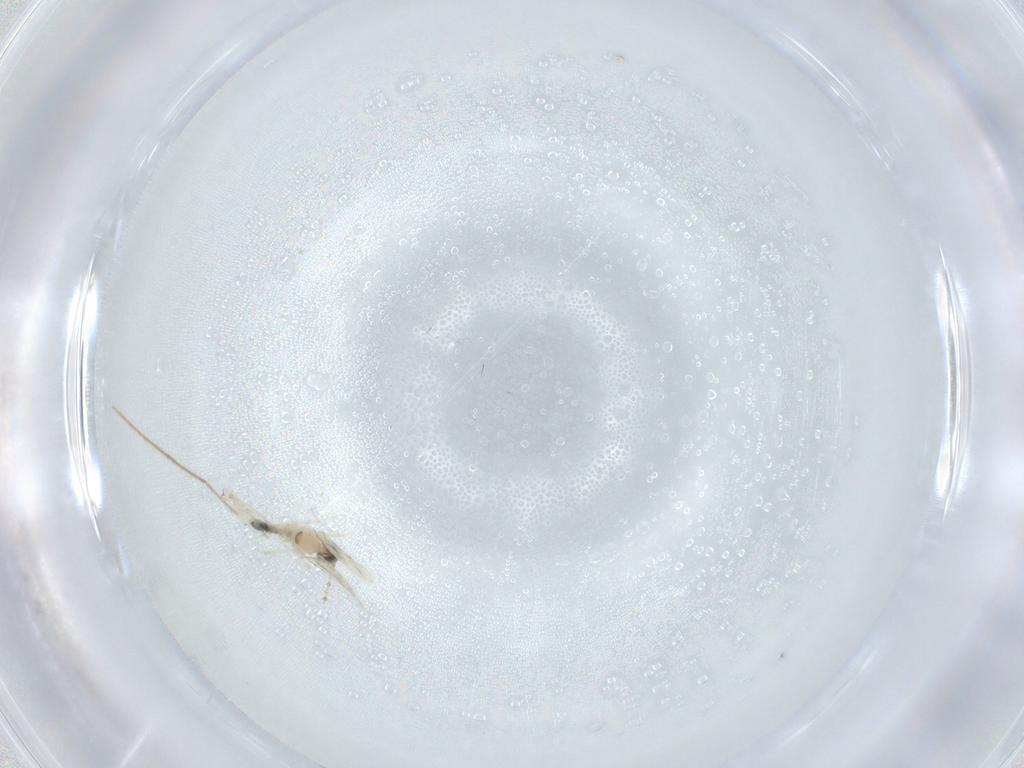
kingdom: Animalia
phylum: Arthropoda
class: Insecta
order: Diptera
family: Cecidomyiidae
